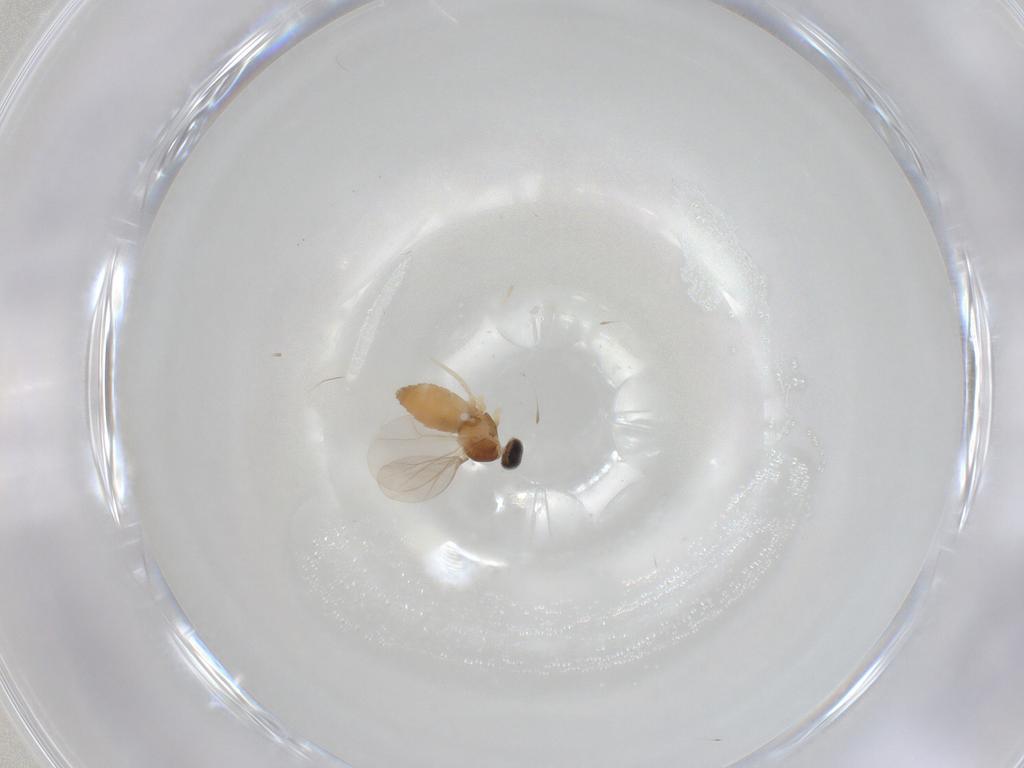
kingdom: Animalia
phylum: Arthropoda
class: Insecta
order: Diptera
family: Cecidomyiidae
